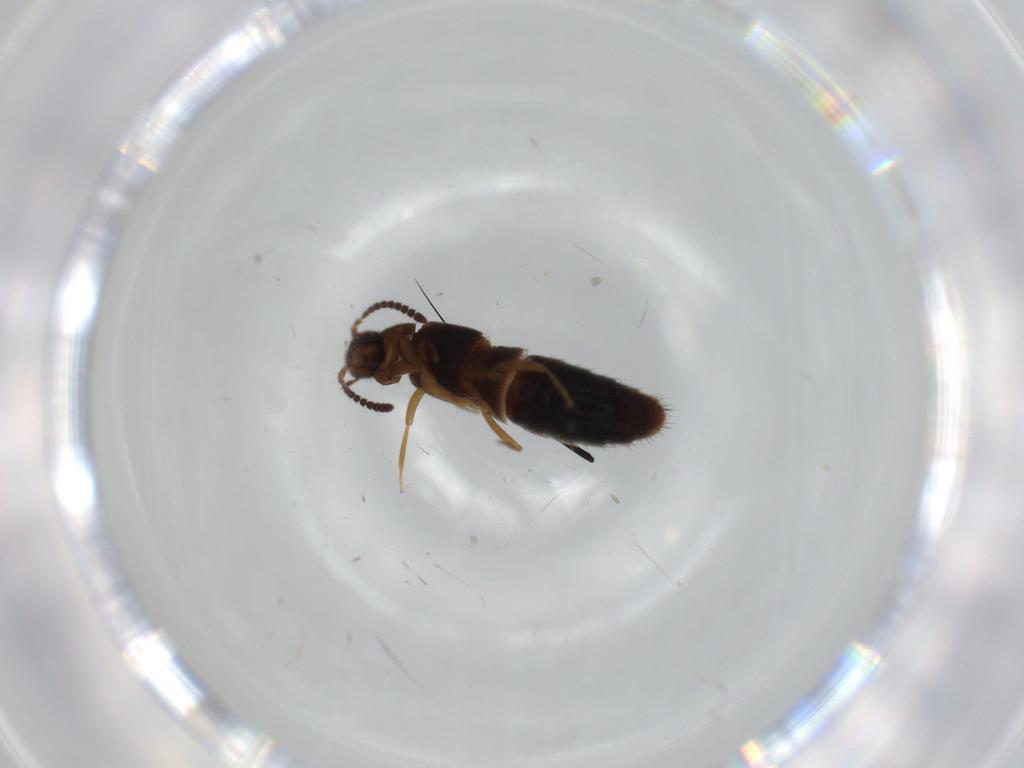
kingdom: Animalia
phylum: Arthropoda
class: Insecta
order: Coleoptera
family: Mordellidae
